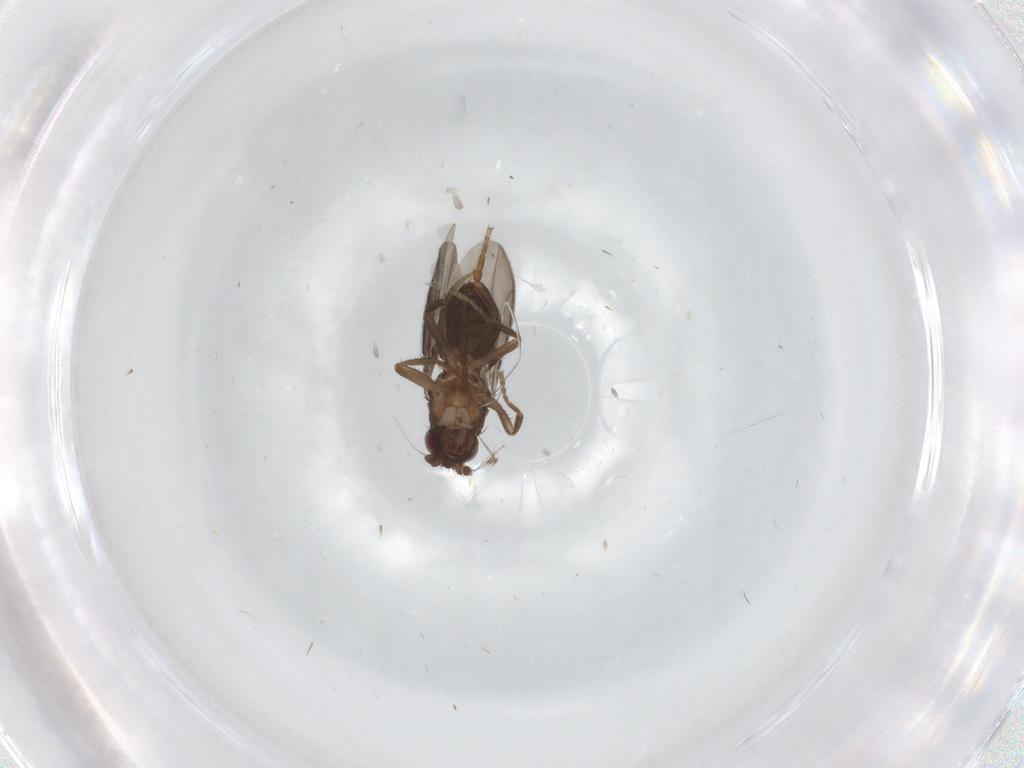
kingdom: Animalia
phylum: Arthropoda
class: Insecta
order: Diptera
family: Sphaeroceridae
